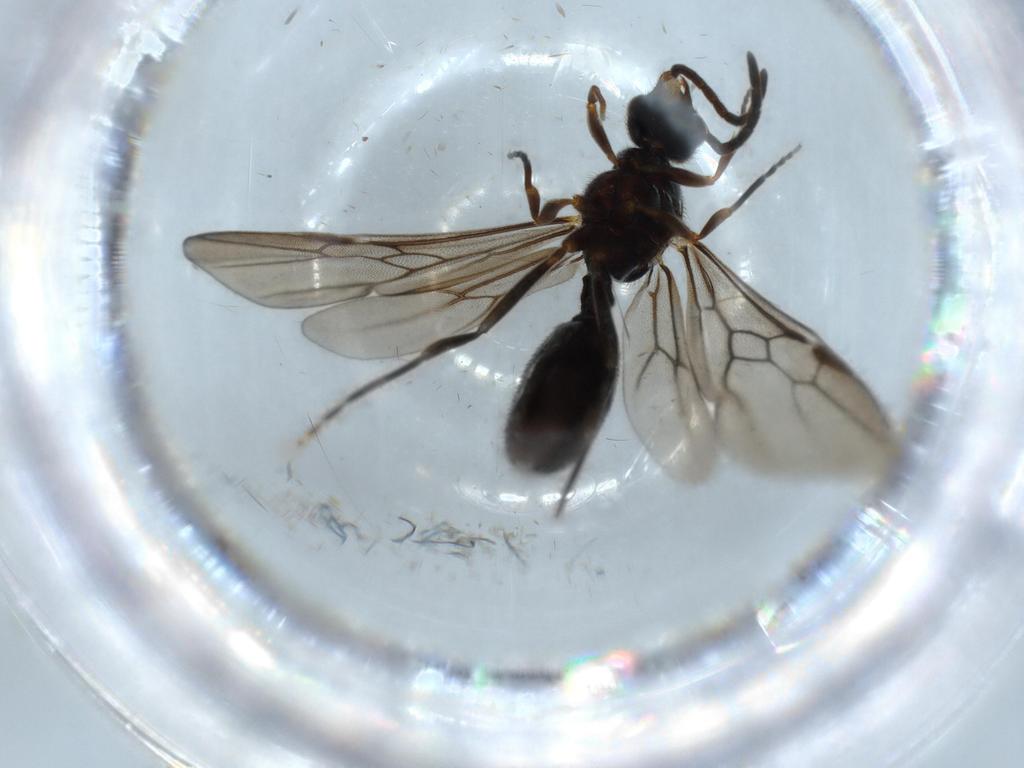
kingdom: Animalia
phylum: Arthropoda
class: Insecta
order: Hymenoptera
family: Formicidae
